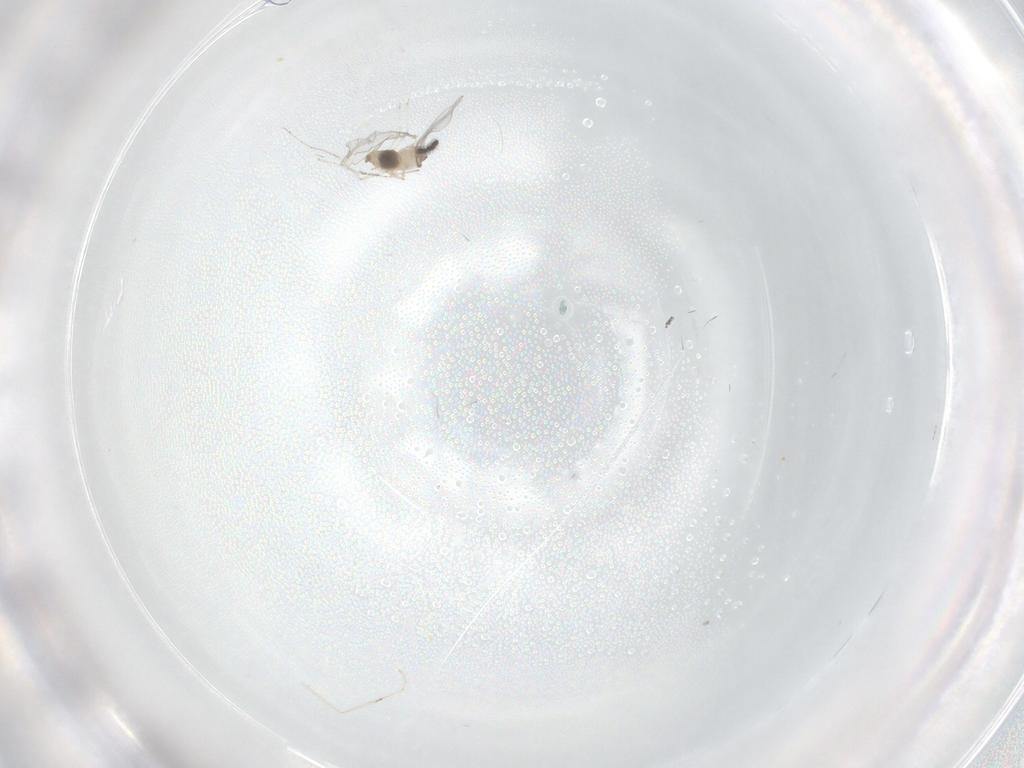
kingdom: Animalia
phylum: Arthropoda
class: Insecta
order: Diptera
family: Cecidomyiidae
